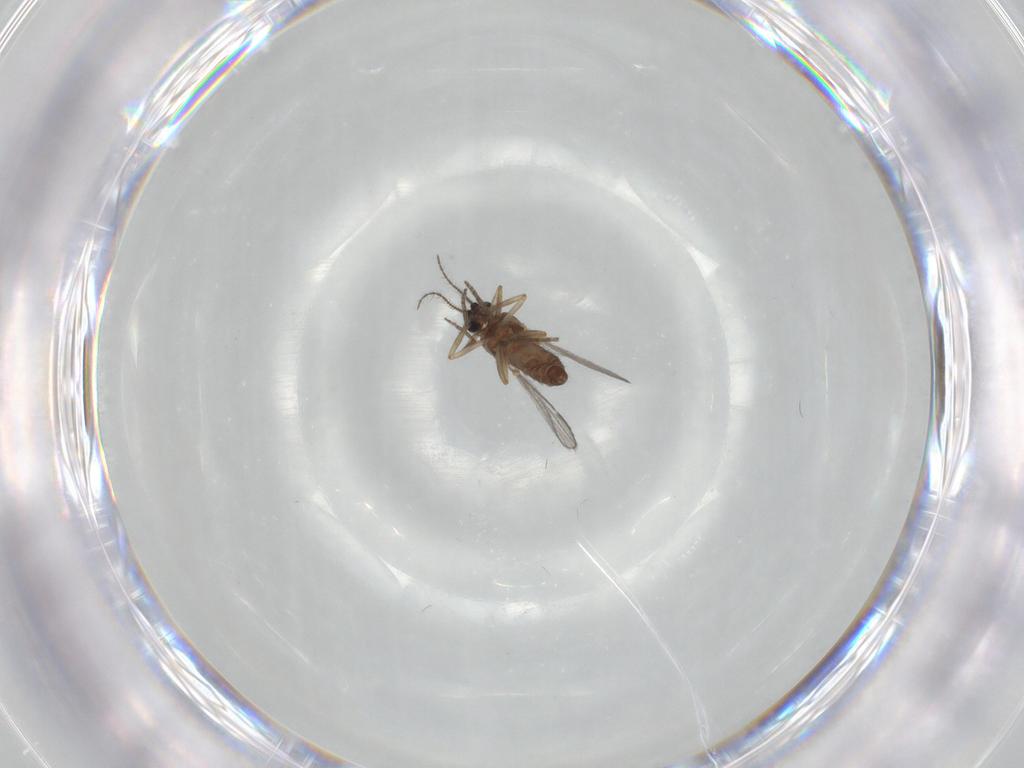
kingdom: Animalia
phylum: Arthropoda
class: Insecta
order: Diptera
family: Ceratopogonidae
